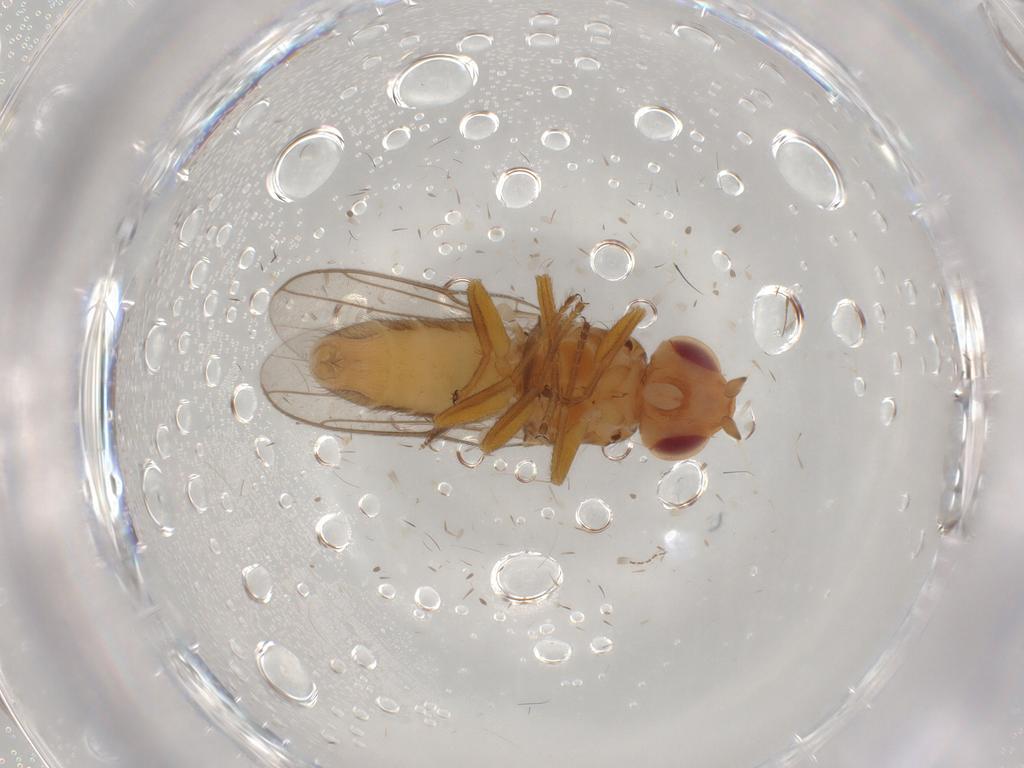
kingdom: Animalia
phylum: Arthropoda
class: Insecta
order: Diptera
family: Chloropidae
